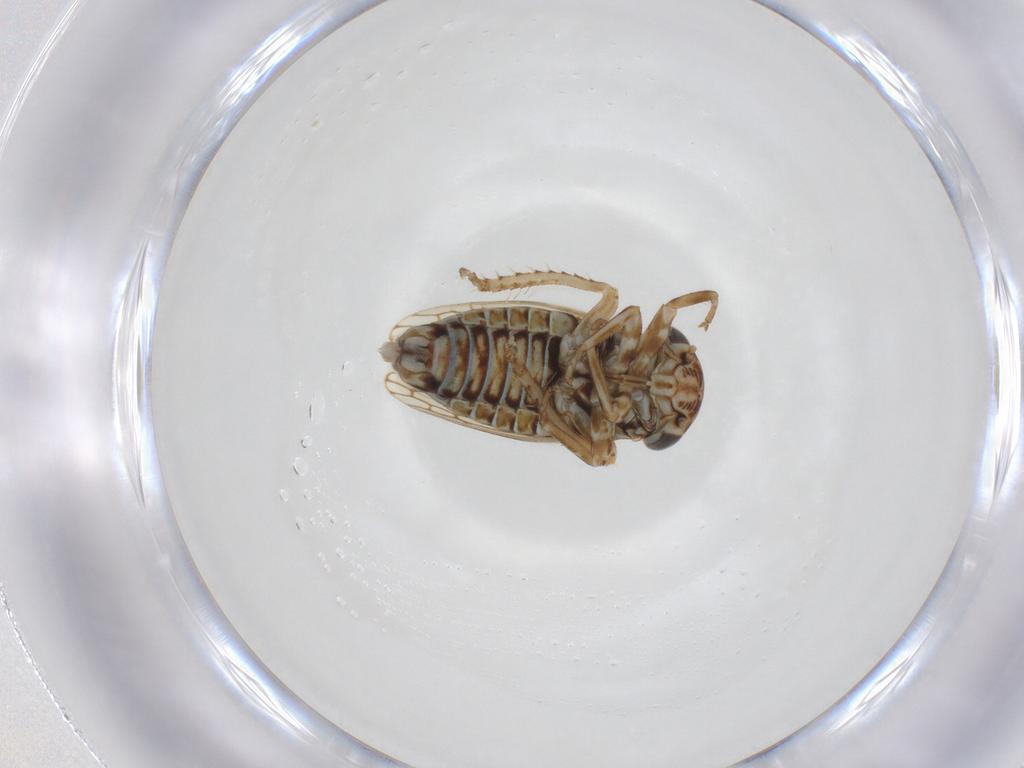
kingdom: Animalia
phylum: Arthropoda
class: Insecta
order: Hemiptera
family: Cicadellidae
